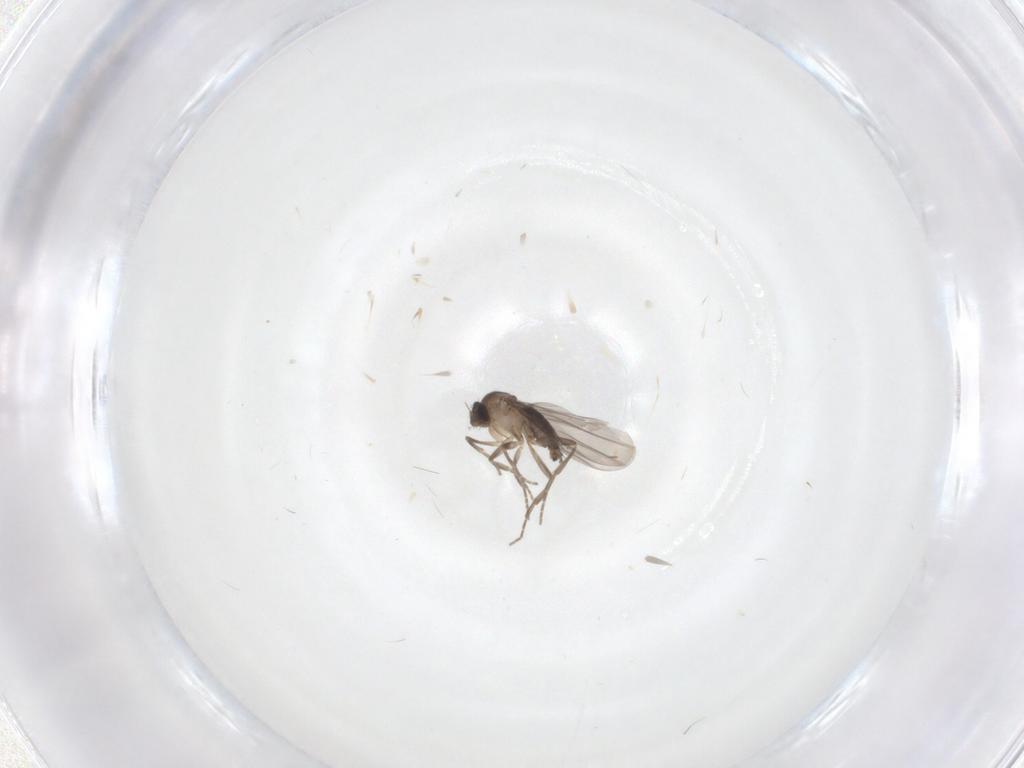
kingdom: Animalia
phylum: Arthropoda
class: Insecta
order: Diptera
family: Phoridae
